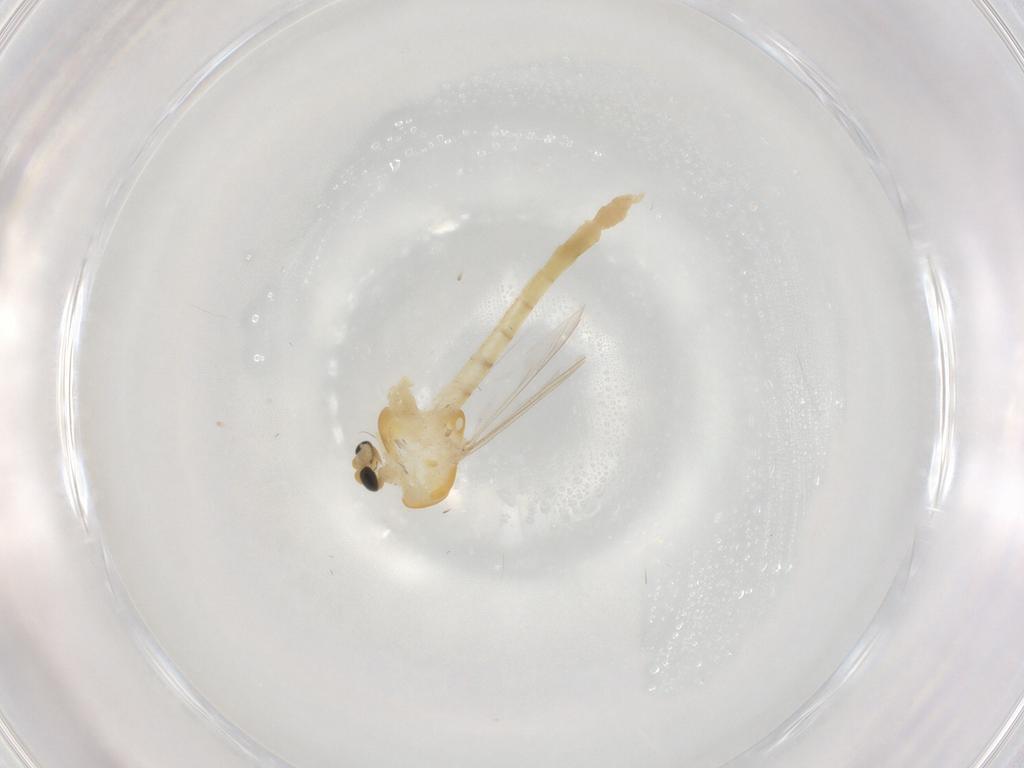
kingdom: Animalia
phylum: Arthropoda
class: Insecta
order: Diptera
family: Chironomidae
